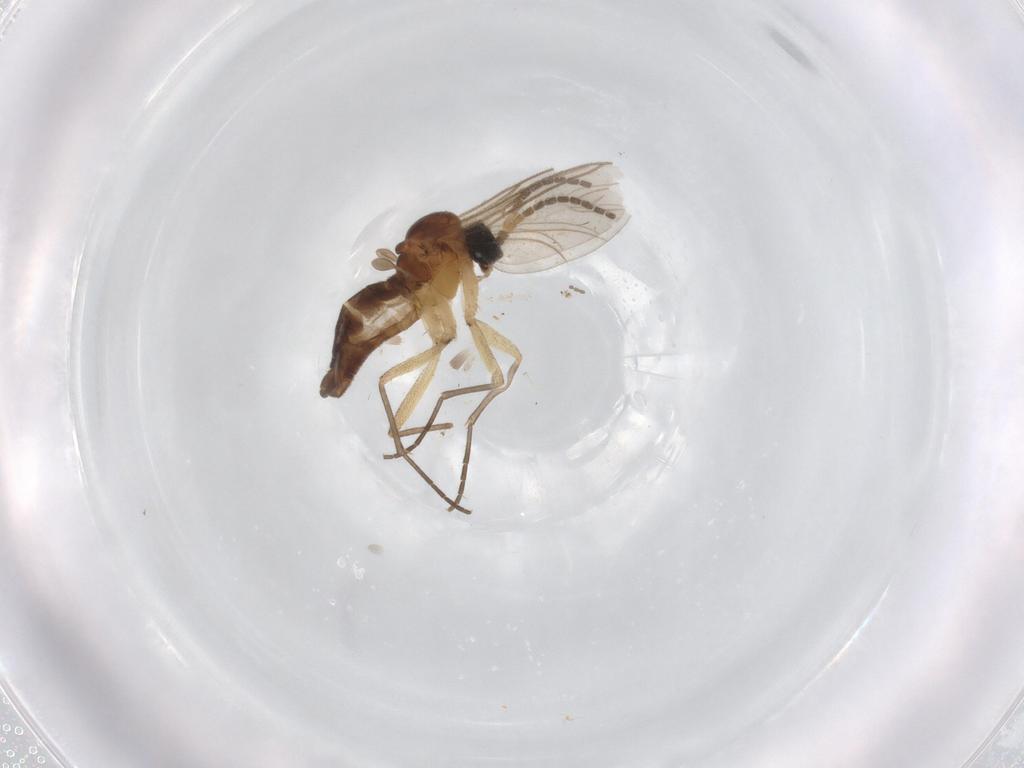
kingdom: Animalia
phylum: Arthropoda
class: Insecta
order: Diptera
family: Sciaridae
